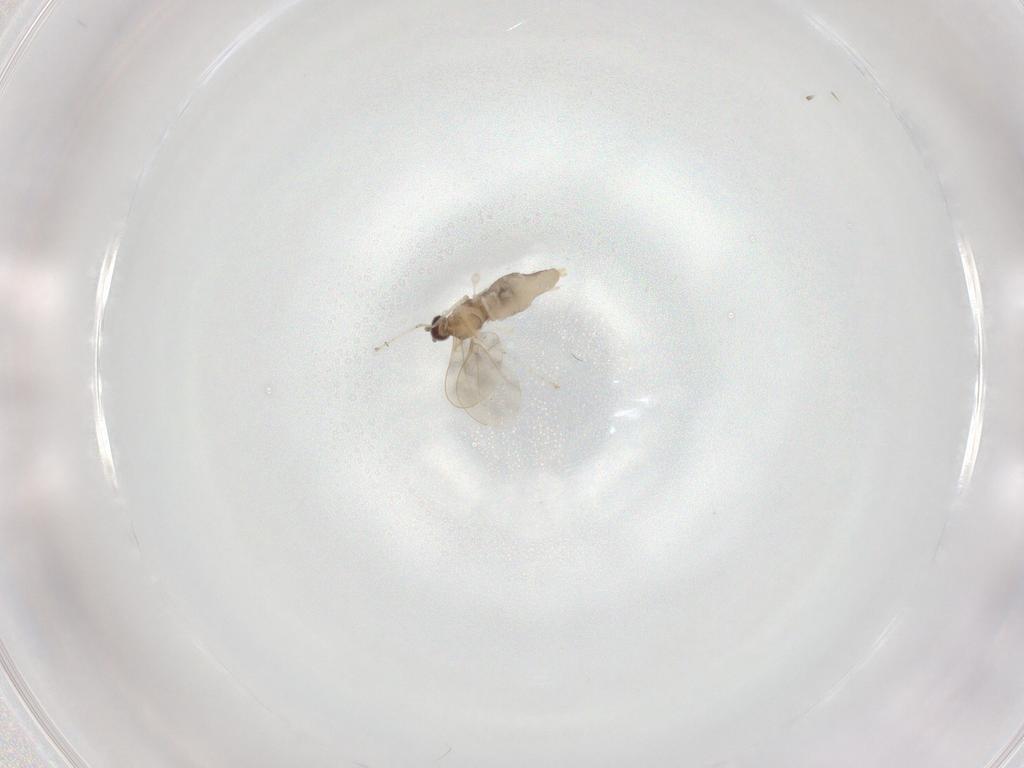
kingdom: Animalia
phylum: Arthropoda
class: Insecta
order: Diptera
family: Cecidomyiidae
